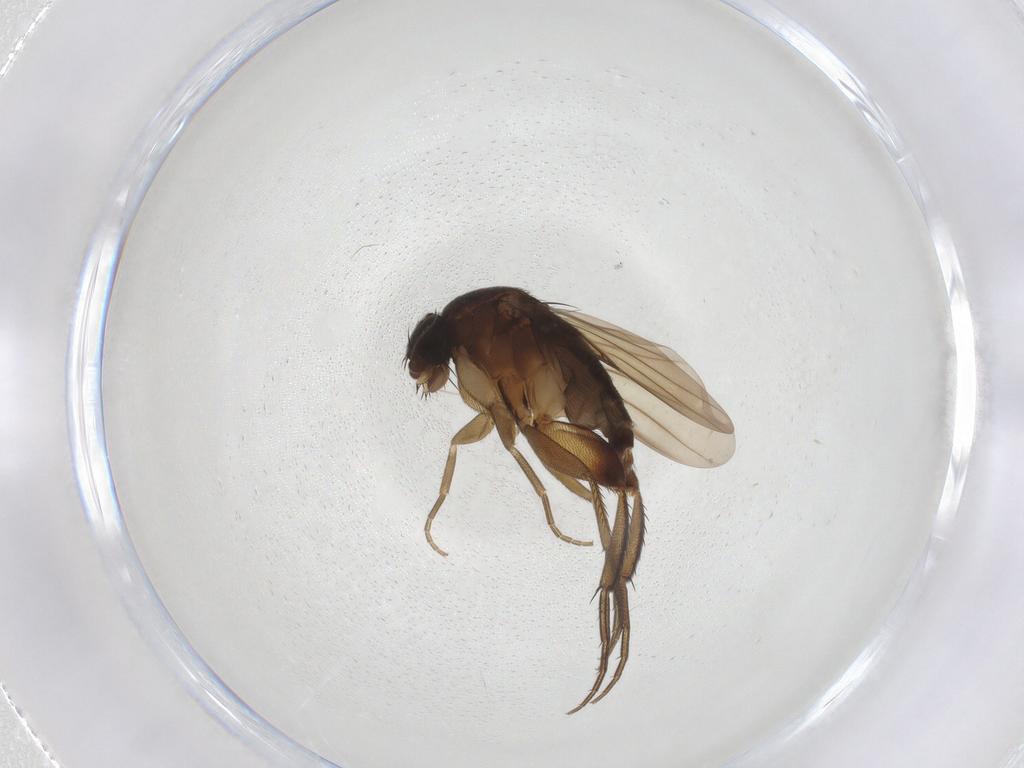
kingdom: Animalia
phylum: Arthropoda
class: Insecta
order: Diptera
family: Phoridae
